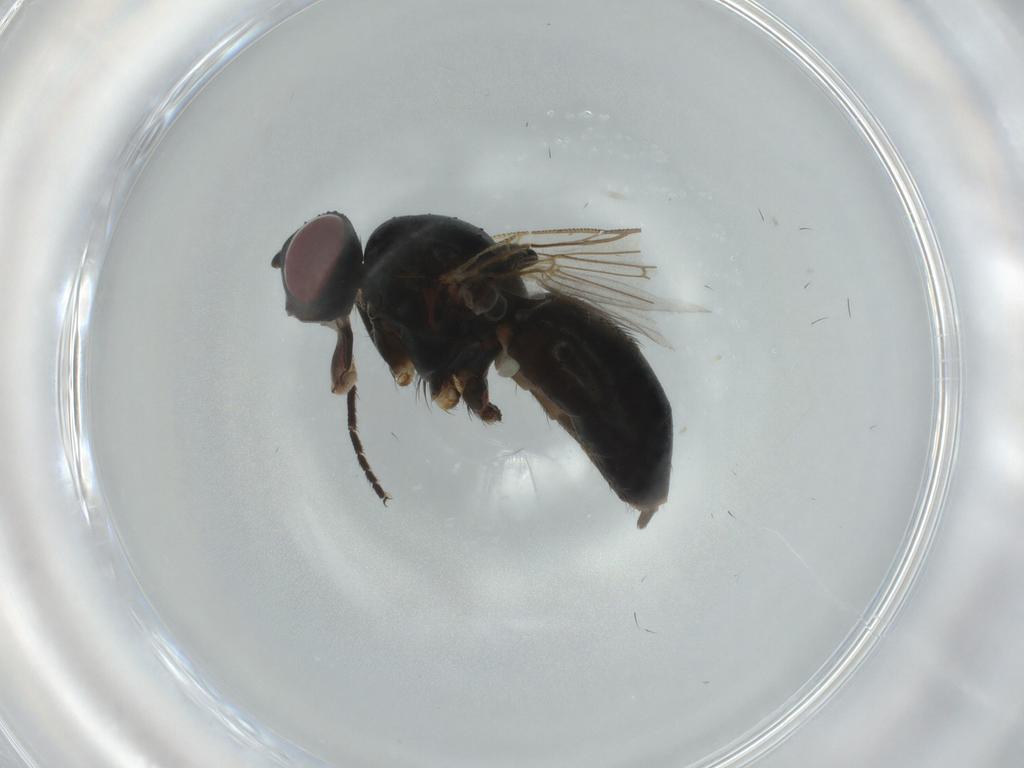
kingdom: Animalia
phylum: Arthropoda
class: Insecta
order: Diptera
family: Muscidae
